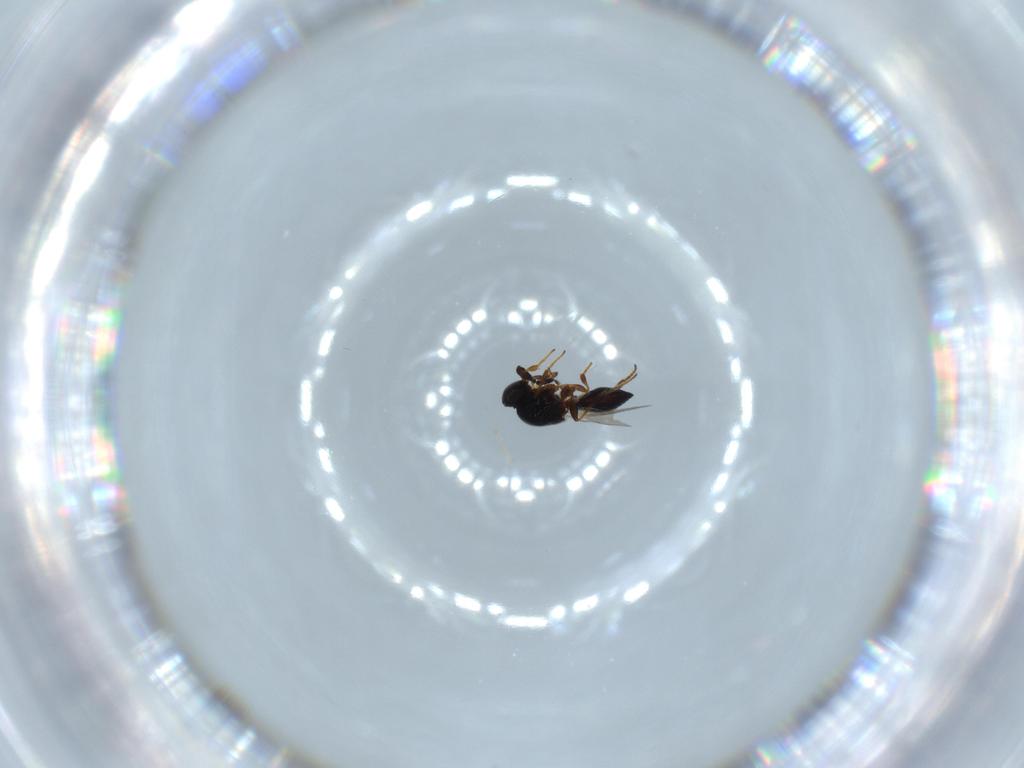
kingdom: Animalia
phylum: Arthropoda
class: Insecta
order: Hymenoptera
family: Platygastridae
